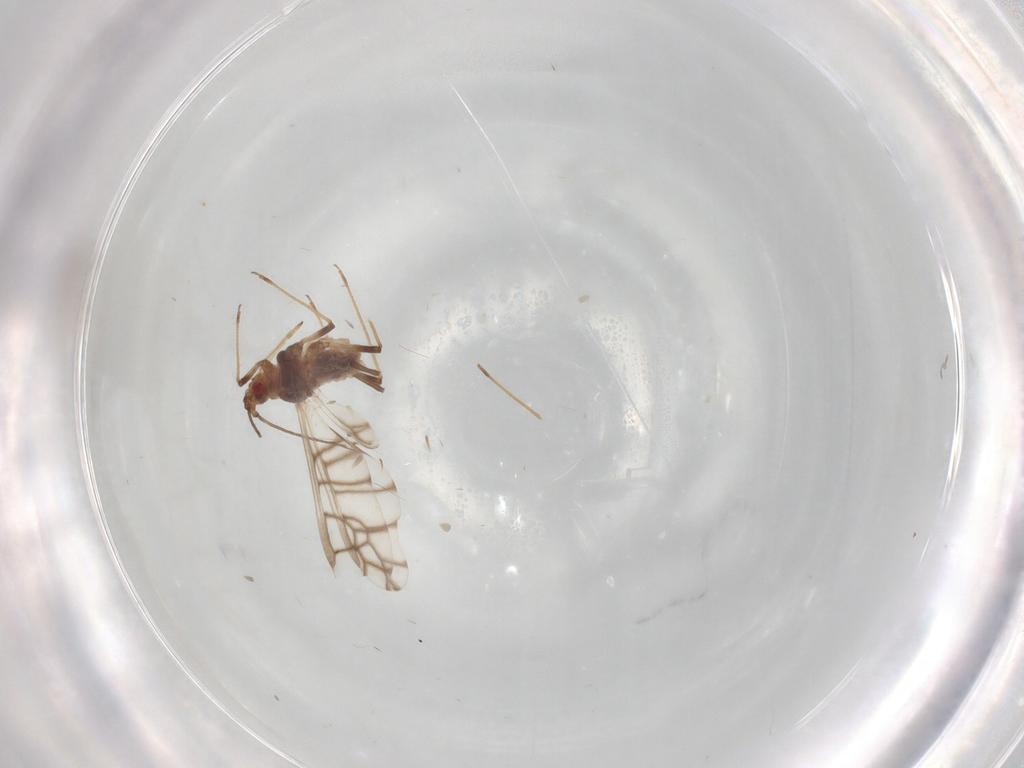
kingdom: Animalia
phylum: Arthropoda
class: Insecta
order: Hemiptera
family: Aphididae
